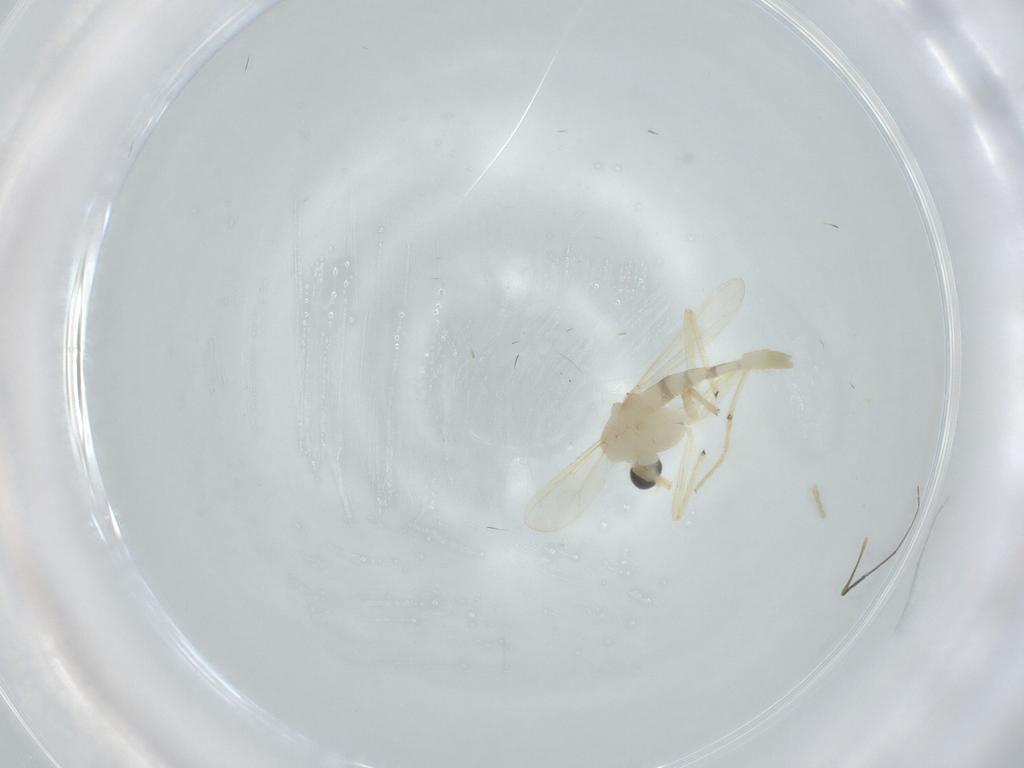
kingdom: Animalia
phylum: Arthropoda
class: Insecta
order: Diptera
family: Chironomidae
